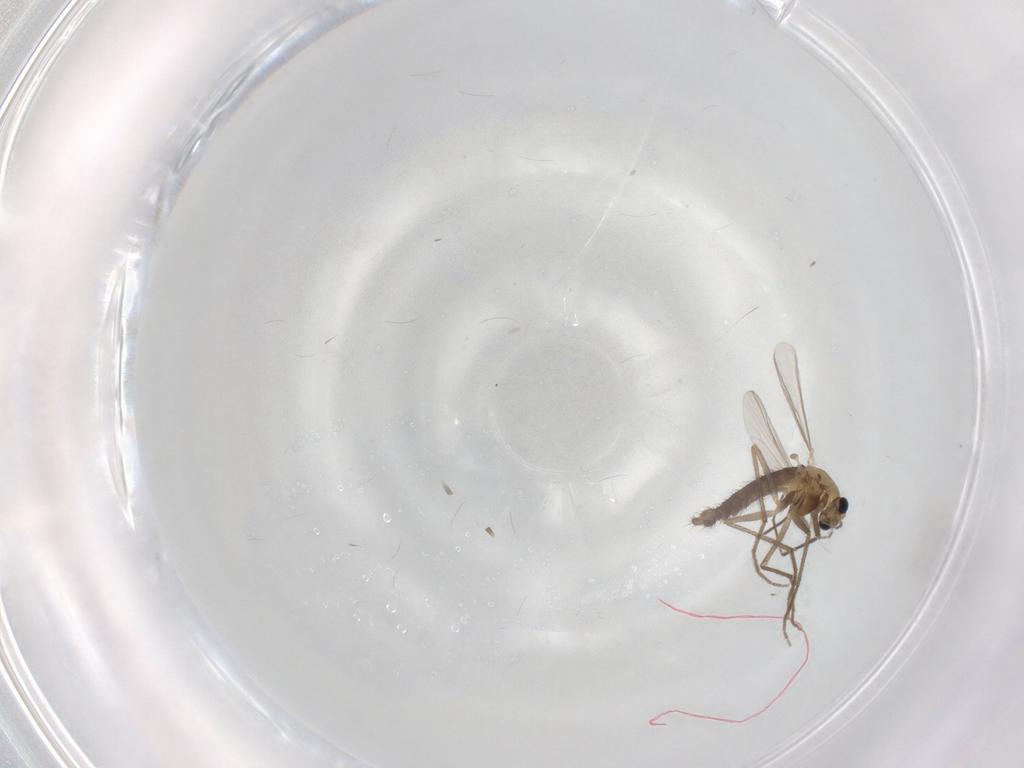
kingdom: Animalia
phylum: Arthropoda
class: Insecta
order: Diptera
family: Chironomidae
